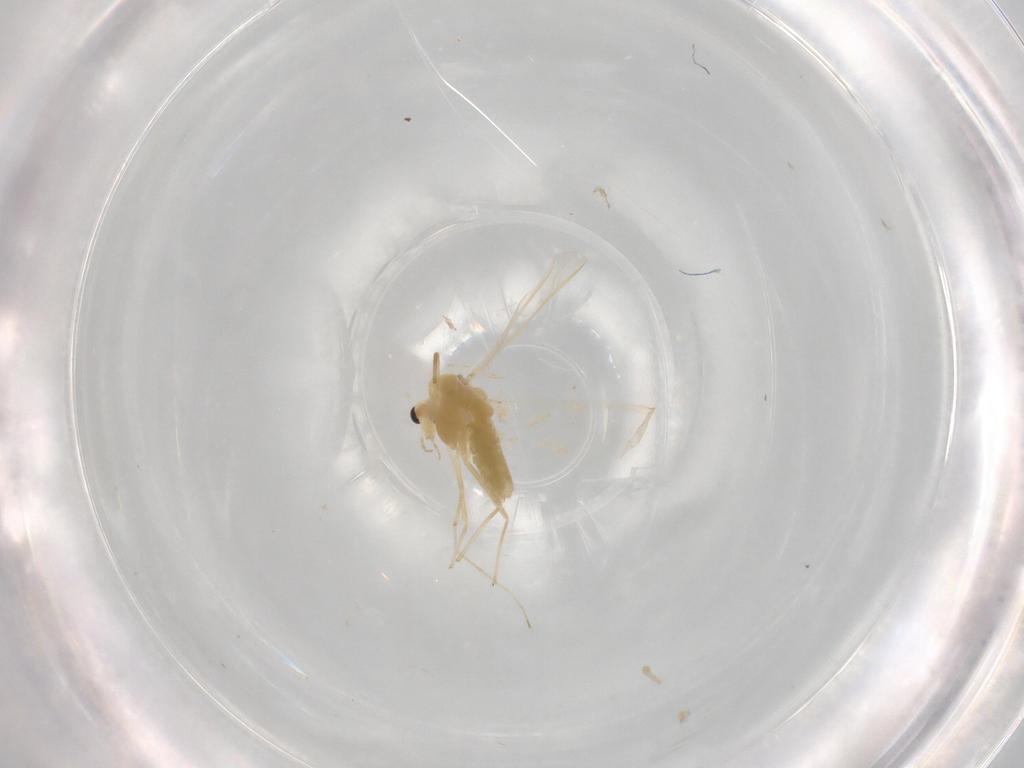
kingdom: Animalia
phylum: Arthropoda
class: Insecta
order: Diptera
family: Chironomidae
